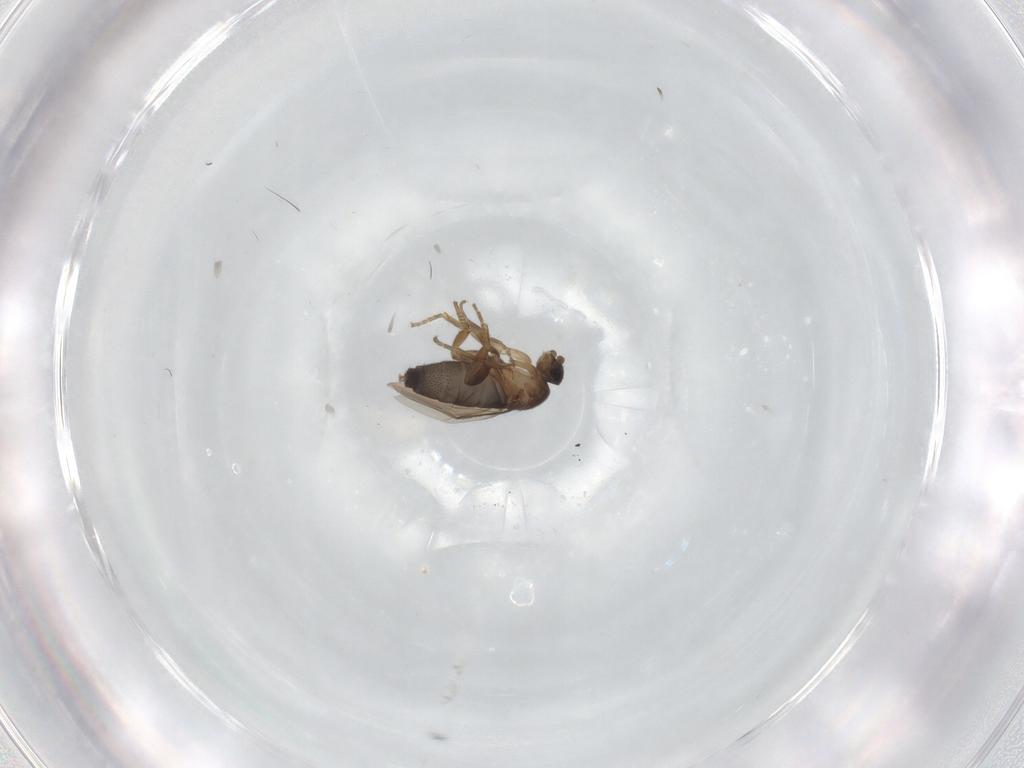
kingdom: Animalia
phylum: Arthropoda
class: Insecta
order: Diptera
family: Phoridae
